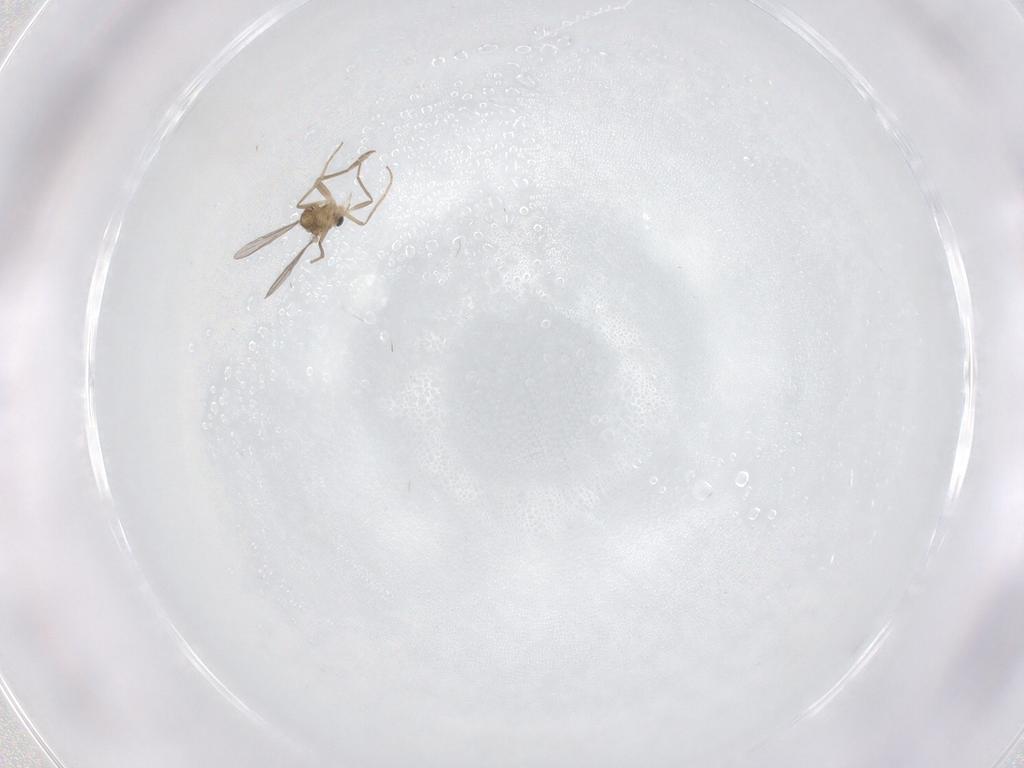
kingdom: Animalia
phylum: Arthropoda
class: Insecta
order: Diptera
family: Chironomidae
